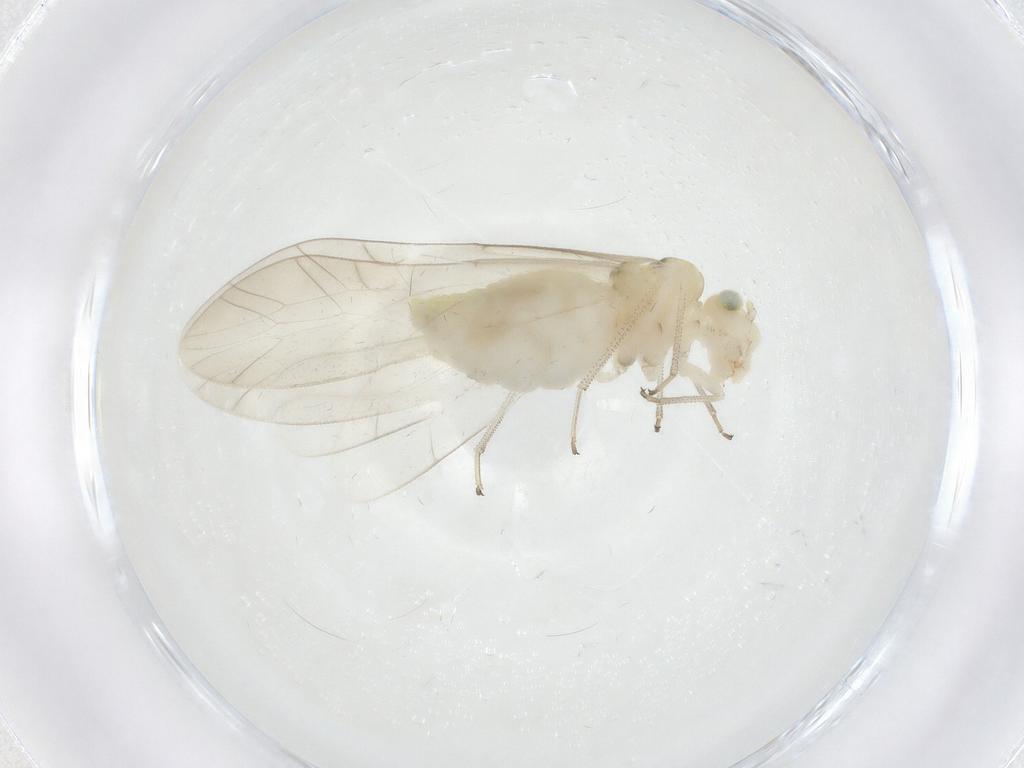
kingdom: Animalia
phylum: Arthropoda
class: Insecta
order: Psocodea
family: Caeciliusidae
